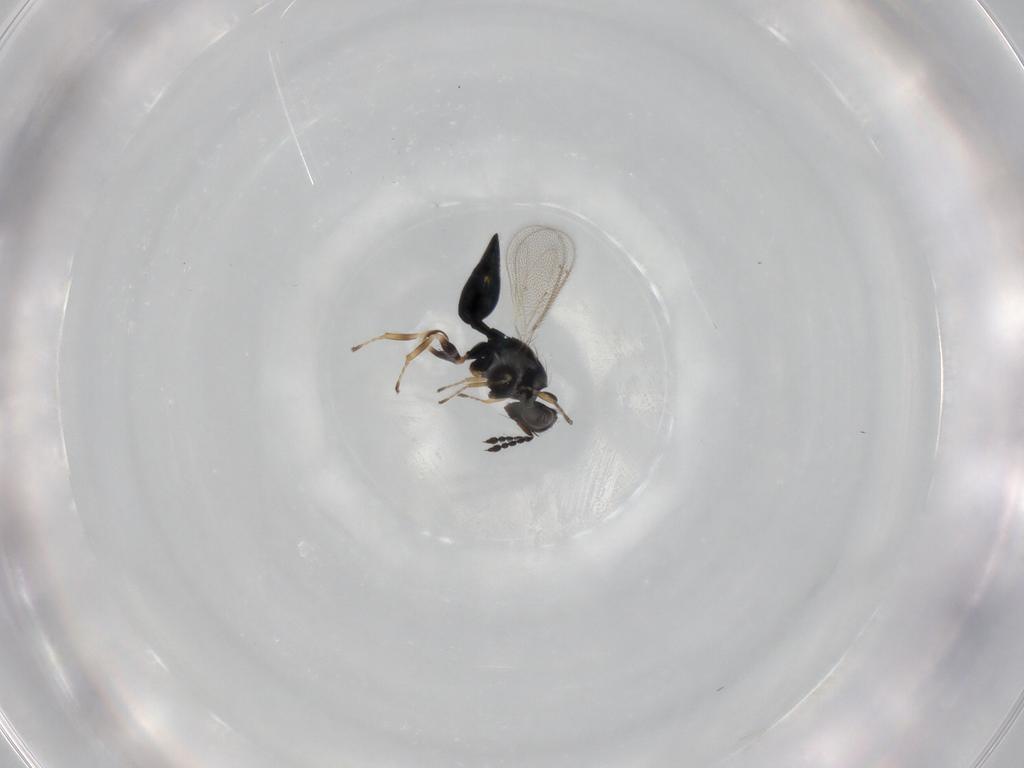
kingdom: Animalia
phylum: Arthropoda
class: Insecta
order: Hymenoptera
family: Eulophidae
